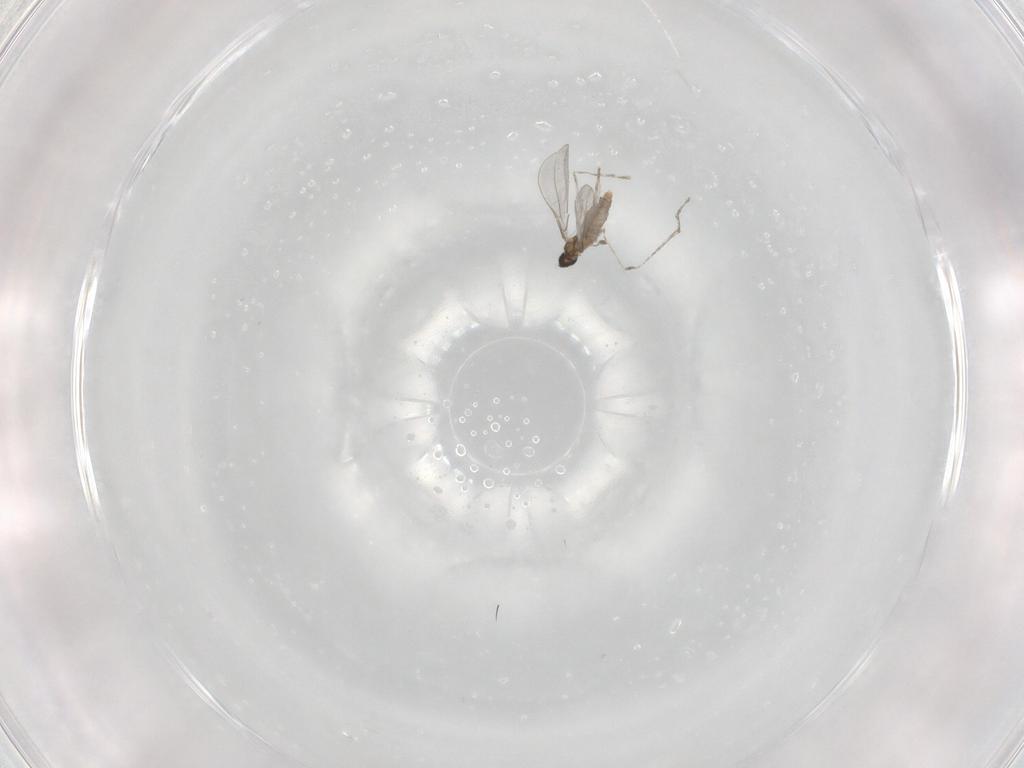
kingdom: Animalia
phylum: Arthropoda
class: Insecta
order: Diptera
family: Cecidomyiidae
